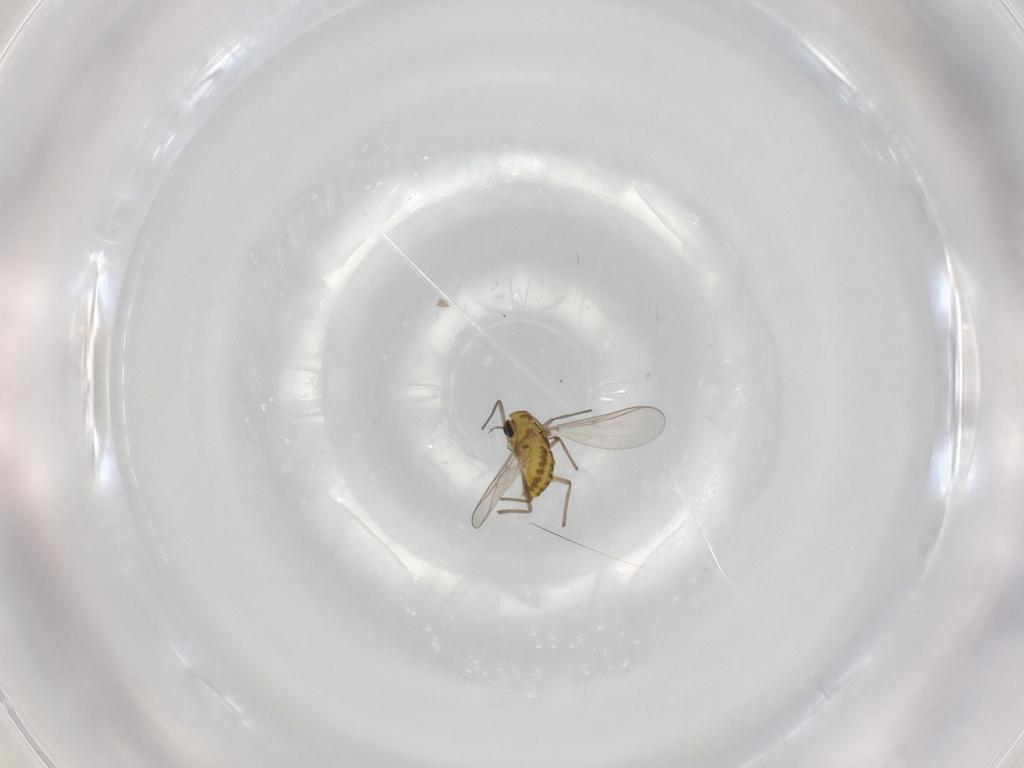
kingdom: Animalia
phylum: Arthropoda
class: Insecta
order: Diptera
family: Chironomidae
